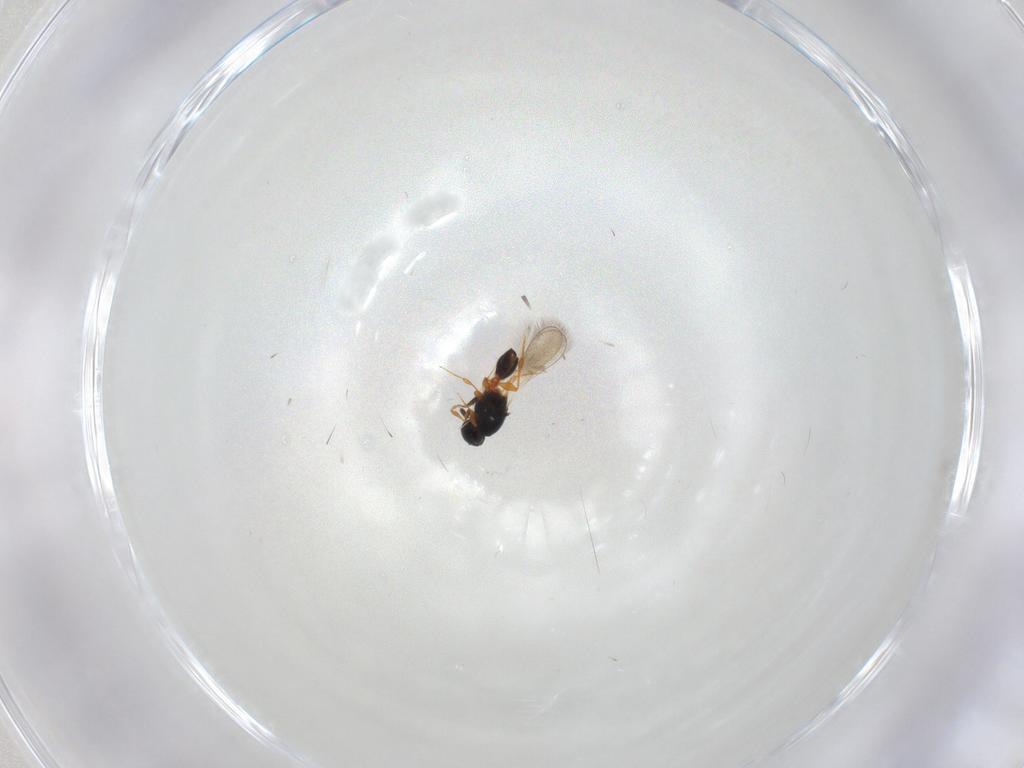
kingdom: Animalia
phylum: Arthropoda
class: Insecta
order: Hymenoptera
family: Platygastridae
